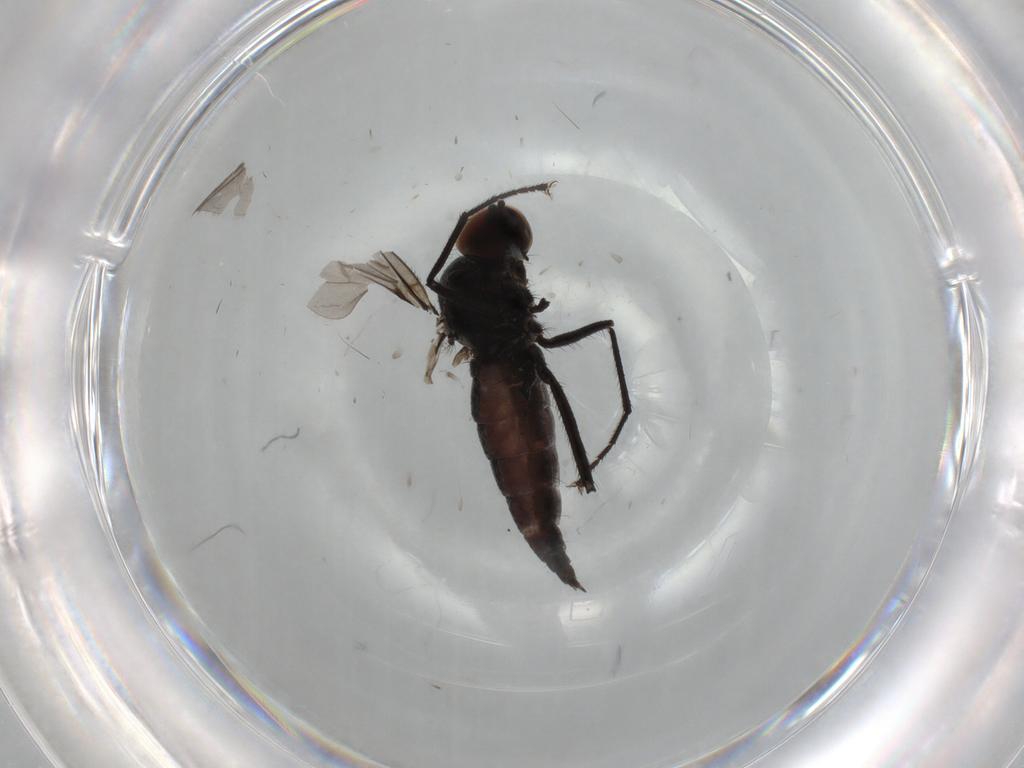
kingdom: Animalia
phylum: Arthropoda
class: Insecta
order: Diptera
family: Hybotidae
